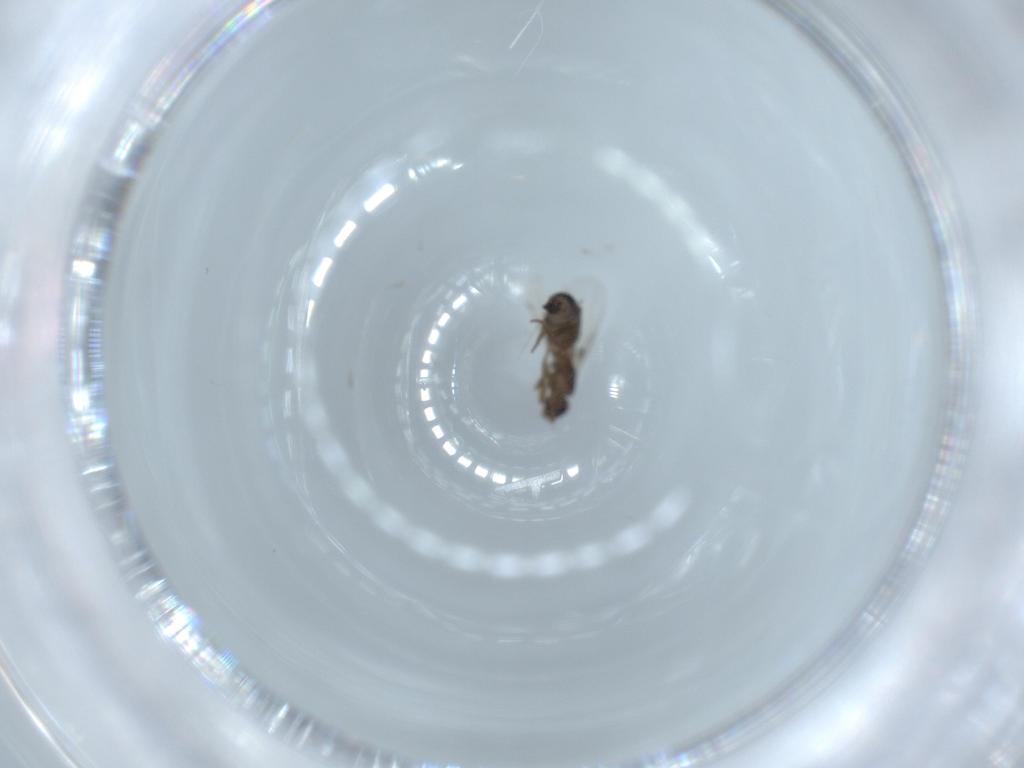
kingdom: Animalia
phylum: Arthropoda
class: Insecta
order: Diptera
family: Phoridae
